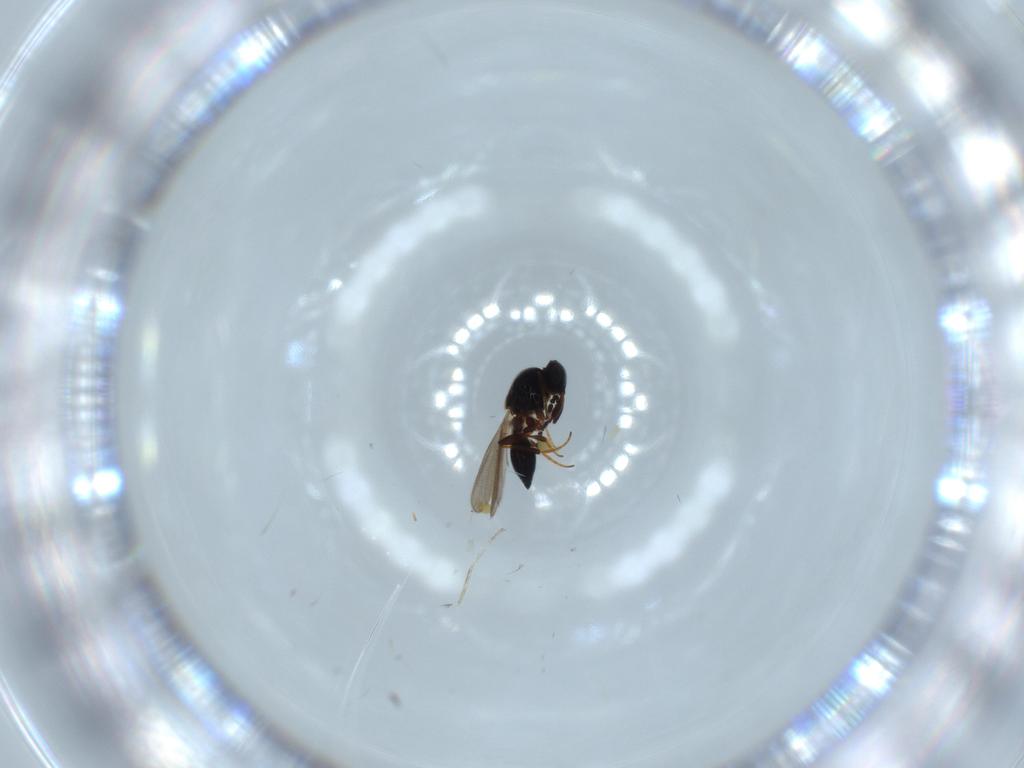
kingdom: Animalia
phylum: Arthropoda
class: Insecta
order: Hymenoptera
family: Platygastridae
